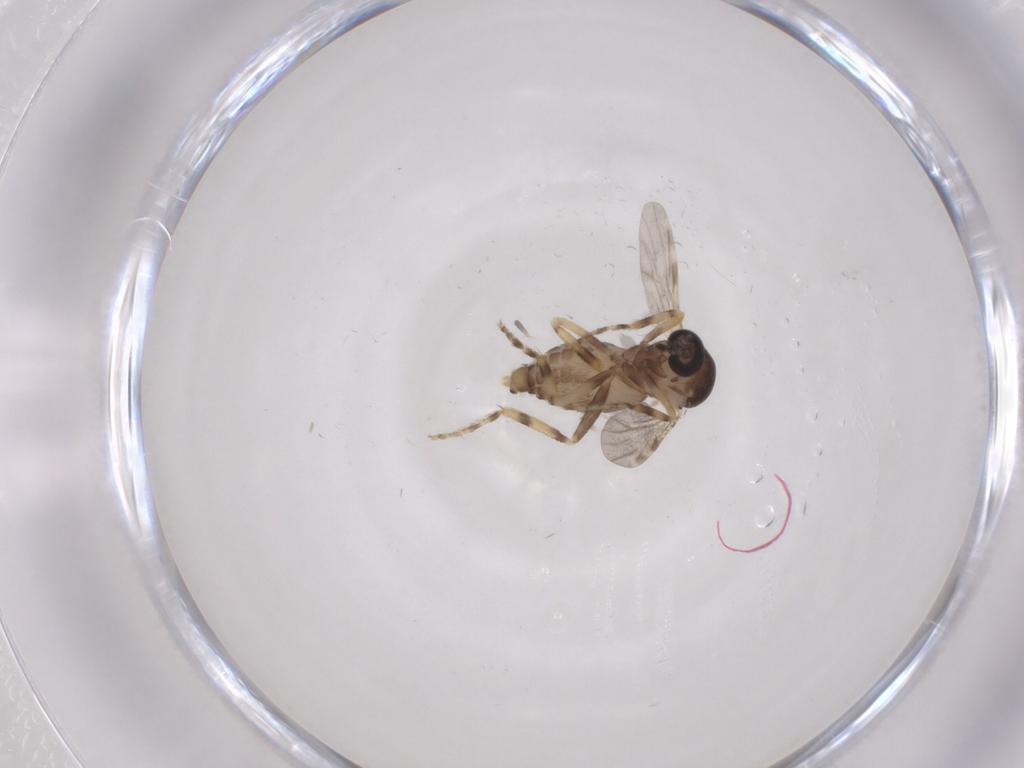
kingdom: Animalia
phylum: Arthropoda
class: Insecta
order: Diptera
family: Ceratopogonidae
